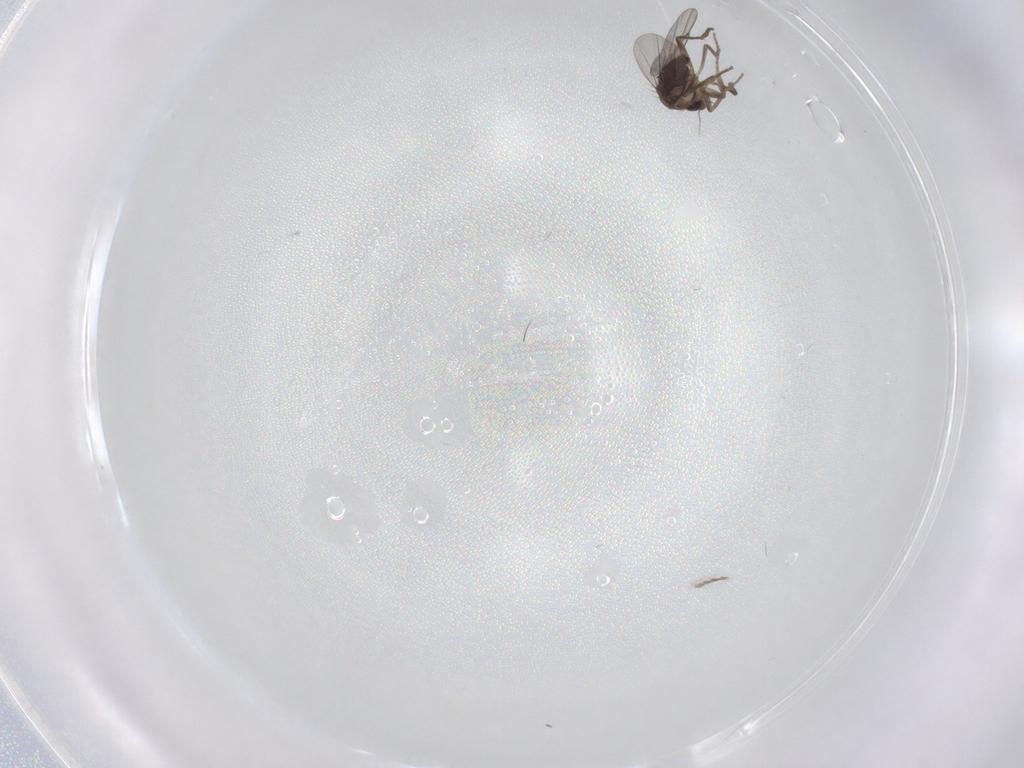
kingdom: Animalia
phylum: Arthropoda
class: Insecta
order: Diptera
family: Phoridae
